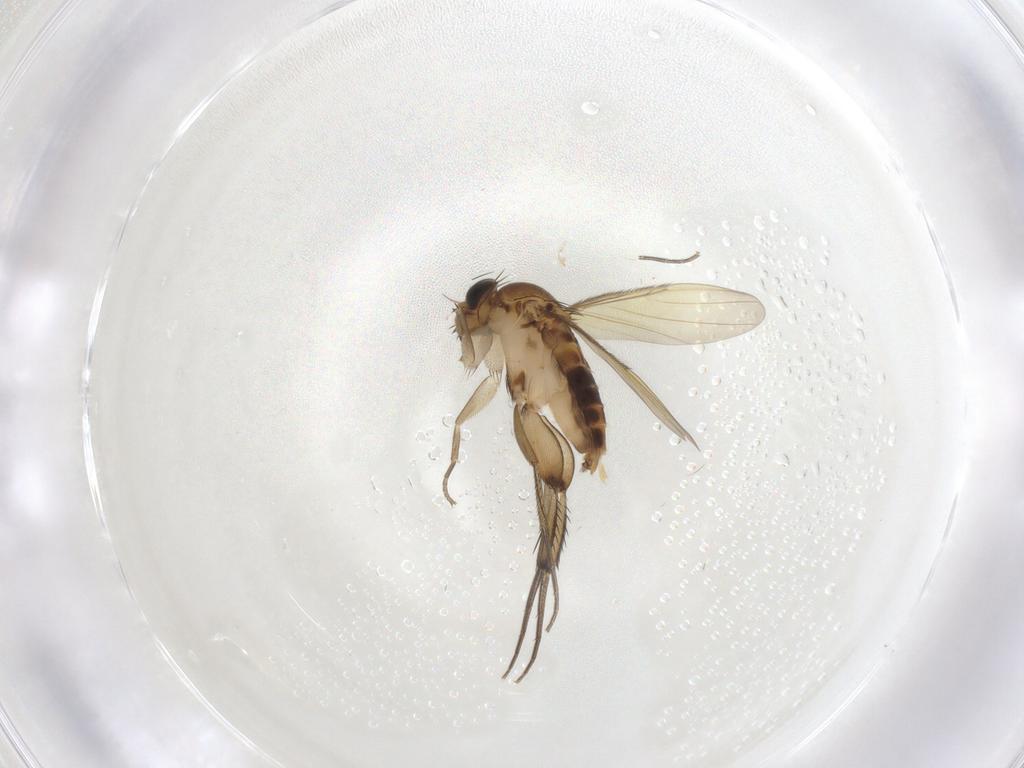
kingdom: Animalia
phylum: Arthropoda
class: Insecta
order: Diptera
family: Phoridae
